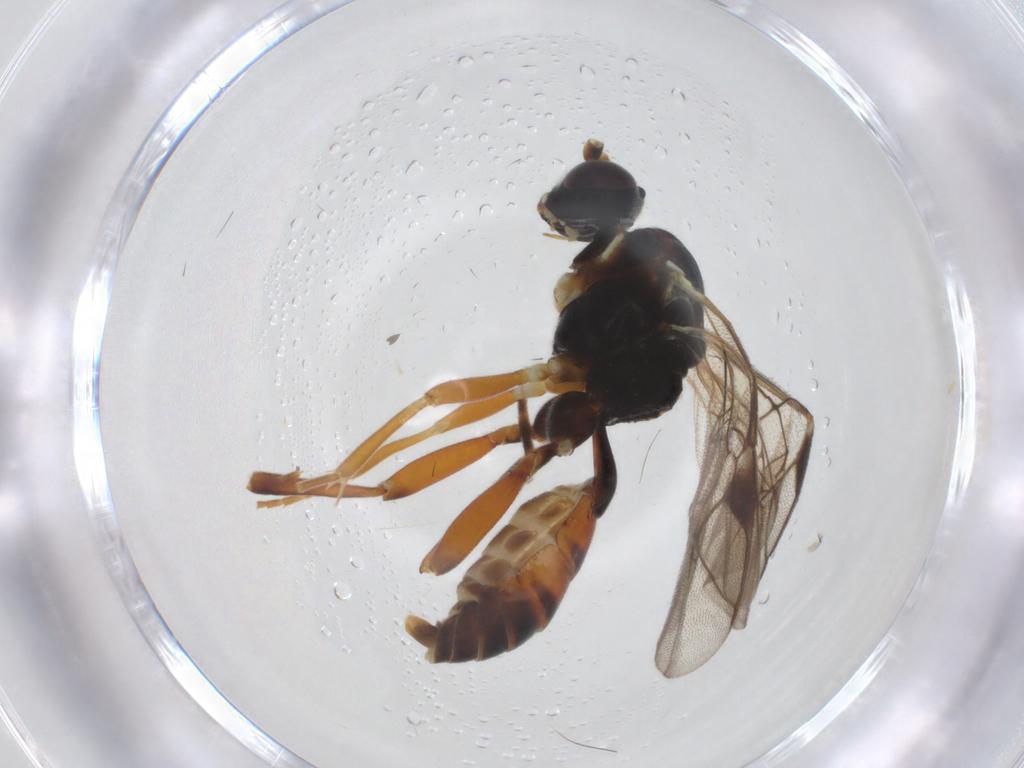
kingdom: Animalia
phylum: Arthropoda
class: Insecta
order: Hymenoptera
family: Ichneumonidae
